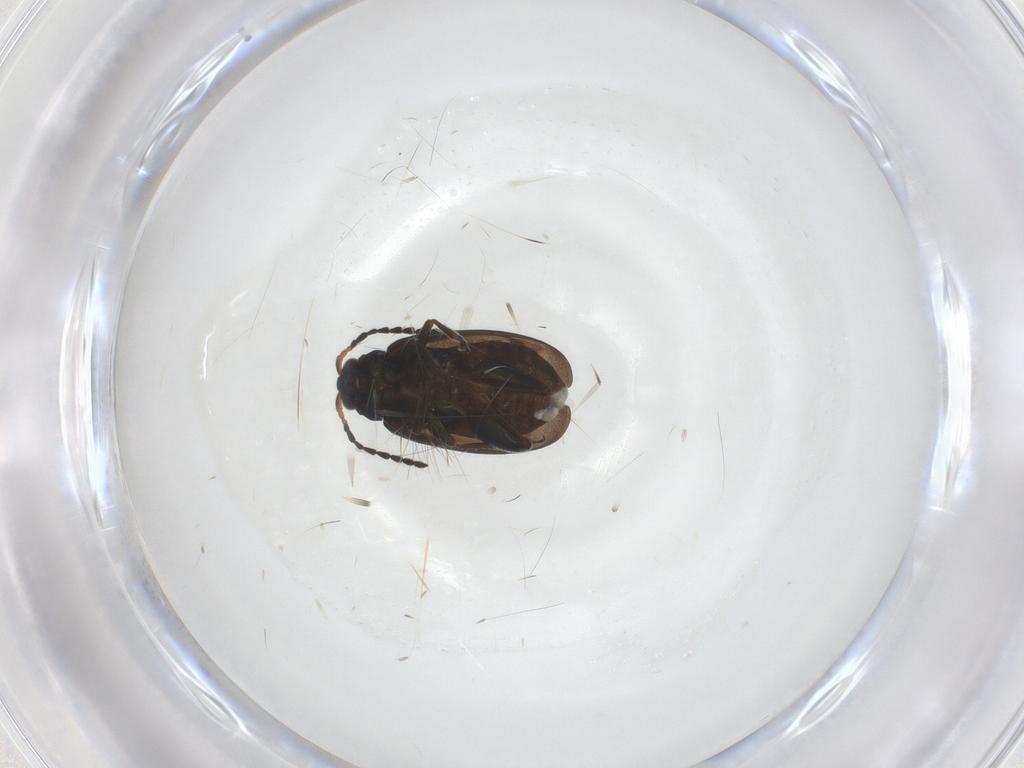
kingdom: Animalia
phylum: Arthropoda
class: Insecta
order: Coleoptera
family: Chrysomelidae
